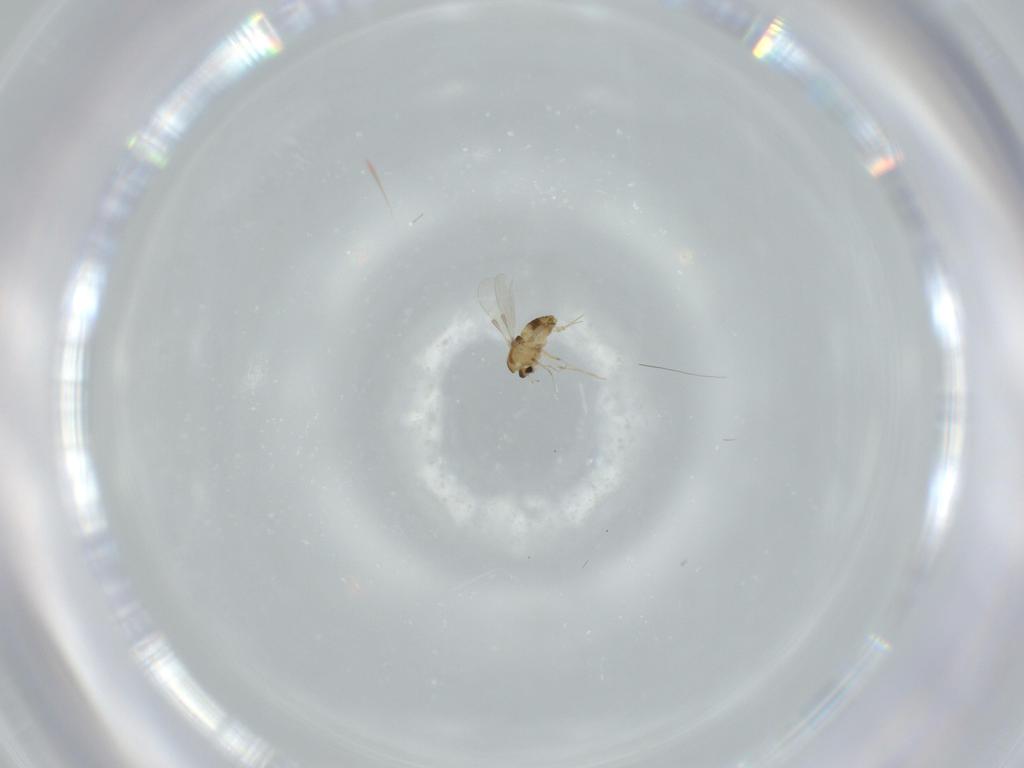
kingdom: Animalia
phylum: Arthropoda
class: Insecta
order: Diptera
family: Chironomidae
